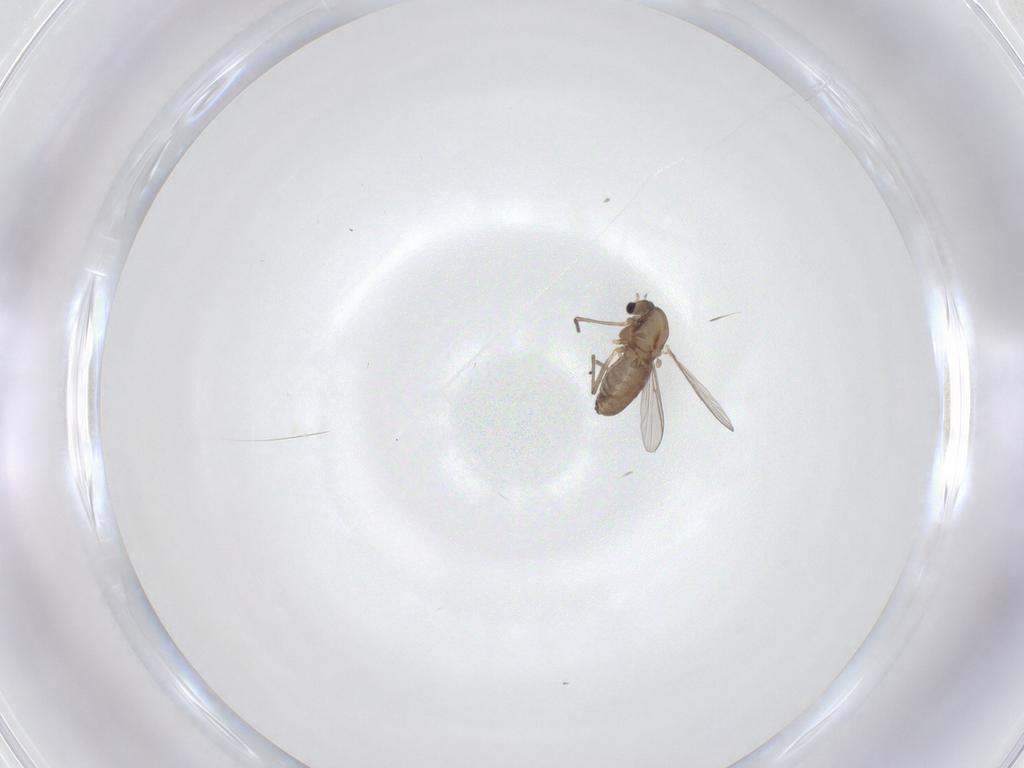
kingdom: Animalia
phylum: Arthropoda
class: Insecta
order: Diptera
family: Chironomidae
